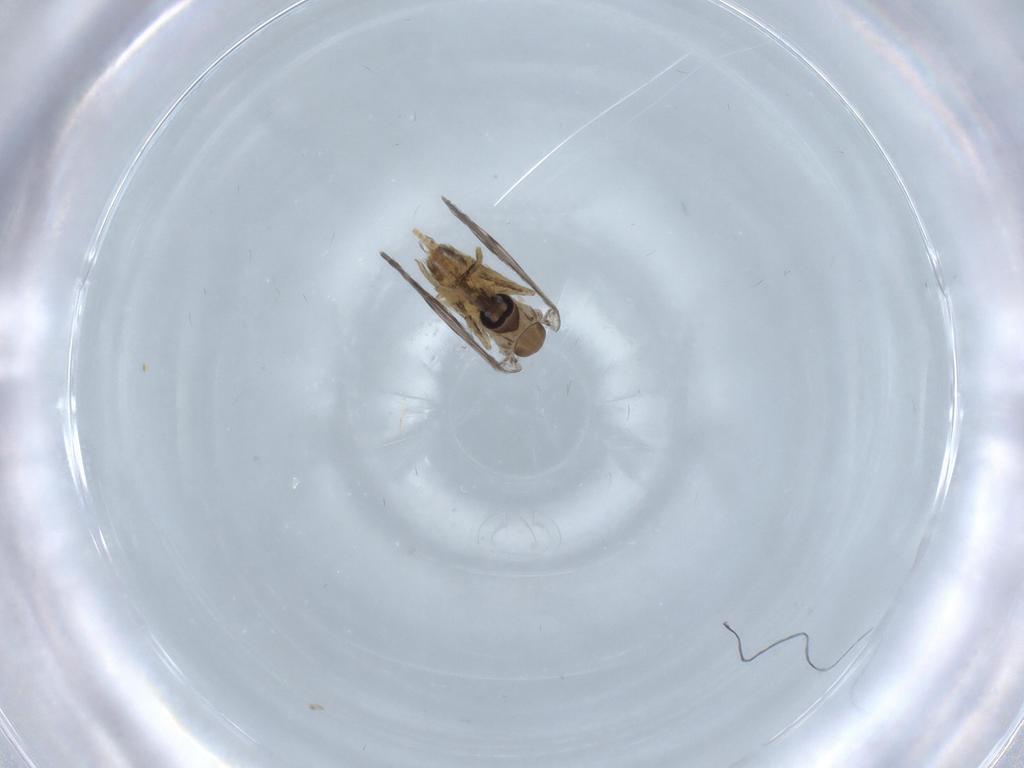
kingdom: Animalia
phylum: Arthropoda
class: Insecta
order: Diptera
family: Psychodidae
